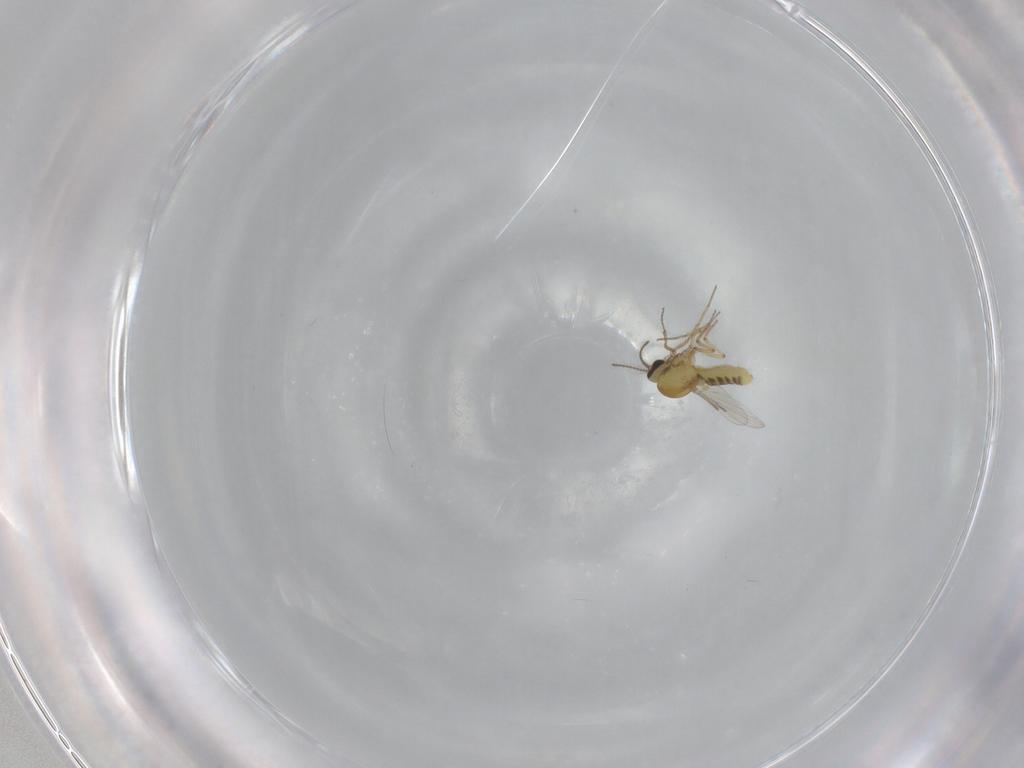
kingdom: Animalia
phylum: Arthropoda
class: Insecta
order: Diptera
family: Ceratopogonidae
